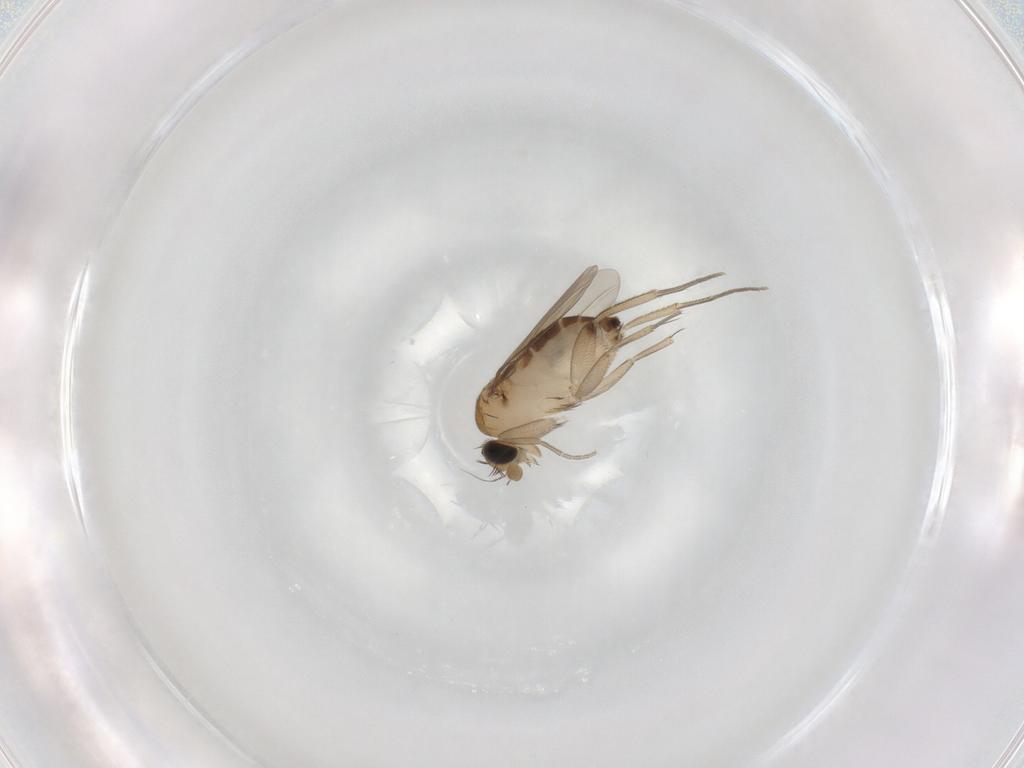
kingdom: Animalia
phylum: Arthropoda
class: Insecta
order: Diptera
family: Phoridae
